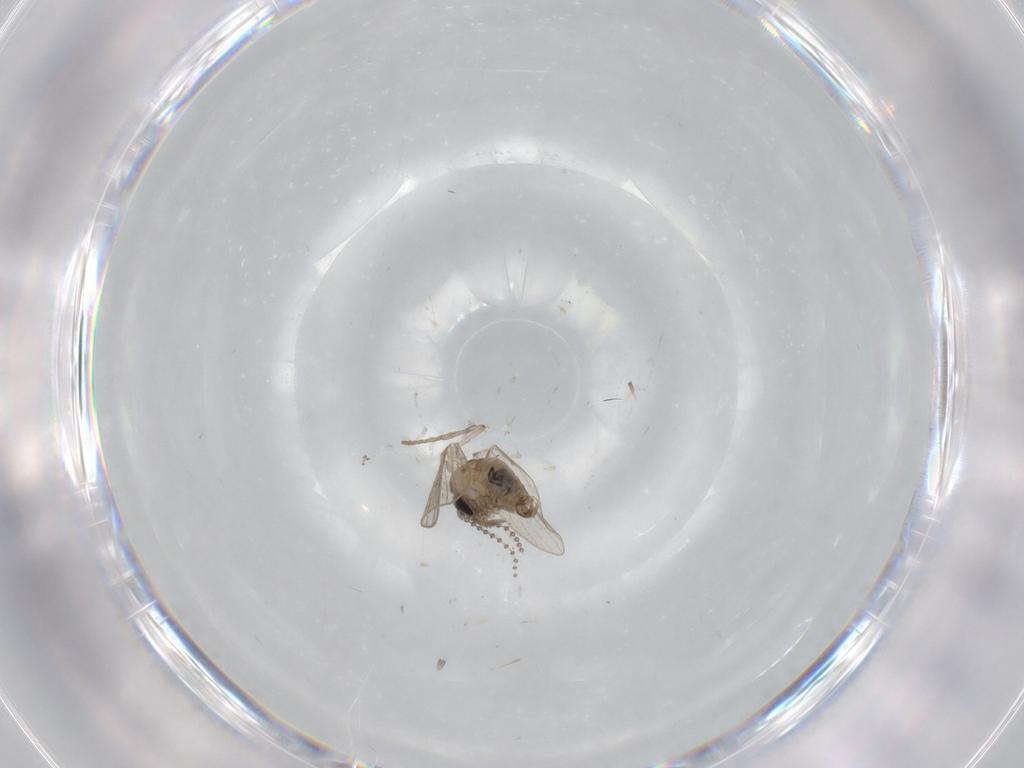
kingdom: Animalia
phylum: Arthropoda
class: Insecta
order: Diptera
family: Psychodidae
